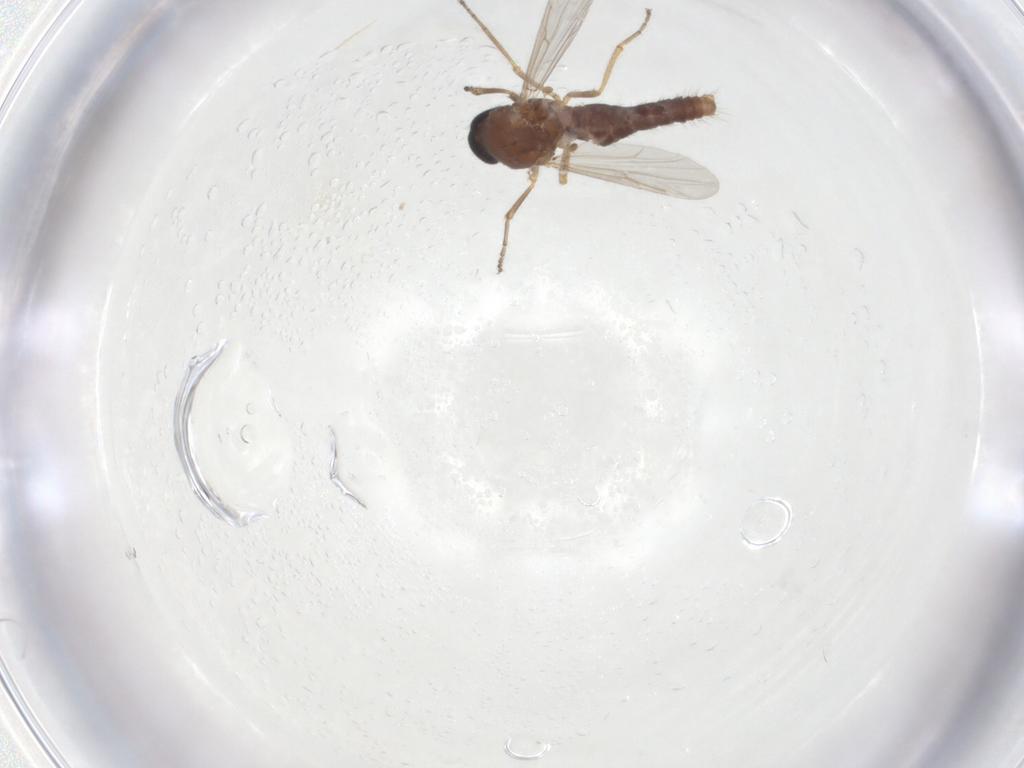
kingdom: Animalia
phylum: Arthropoda
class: Insecta
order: Diptera
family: Ceratopogonidae
